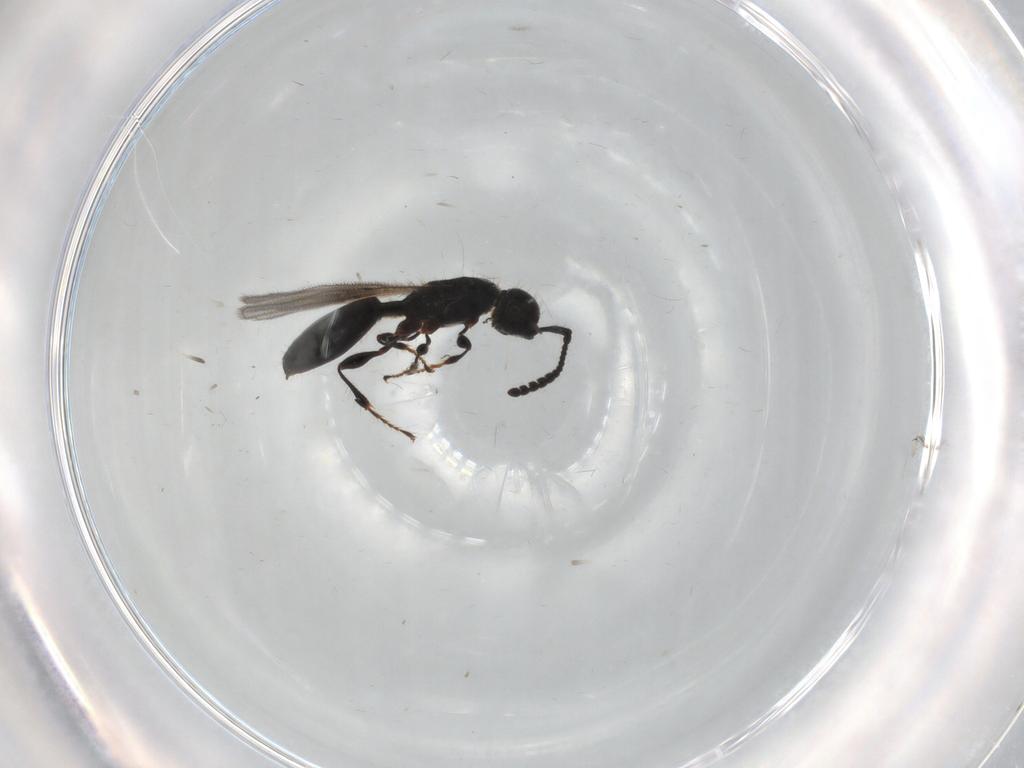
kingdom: Animalia
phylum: Arthropoda
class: Insecta
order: Hymenoptera
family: Diapriidae
